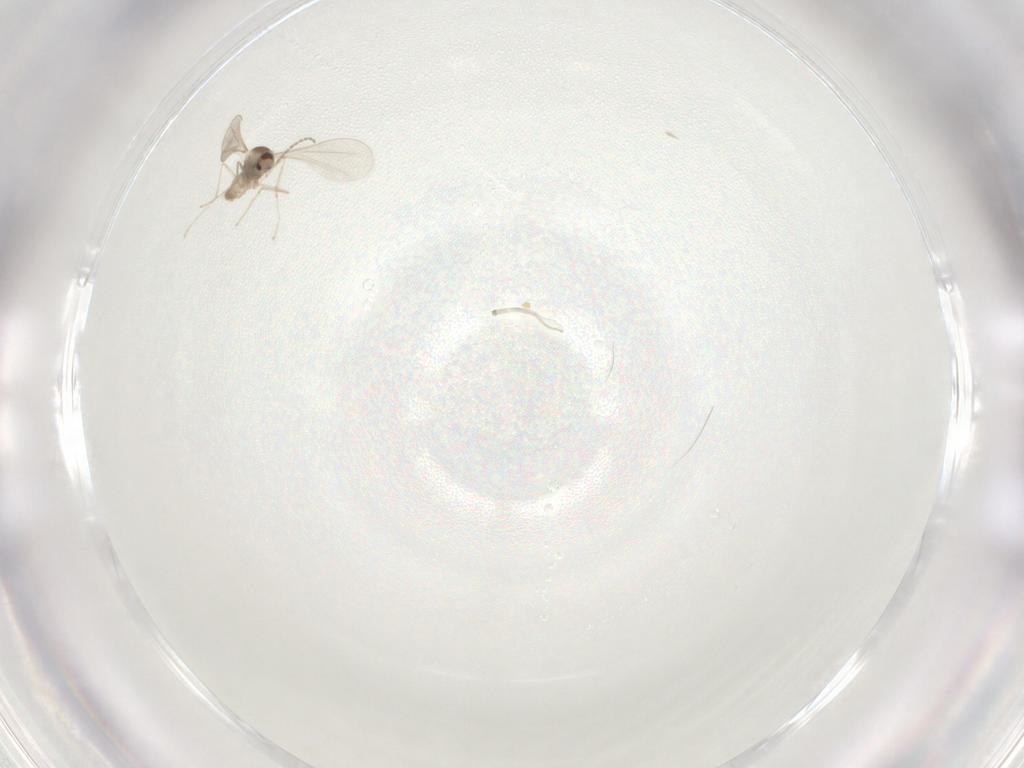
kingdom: Animalia
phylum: Arthropoda
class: Insecta
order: Diptera
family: Cecidomyiidae
